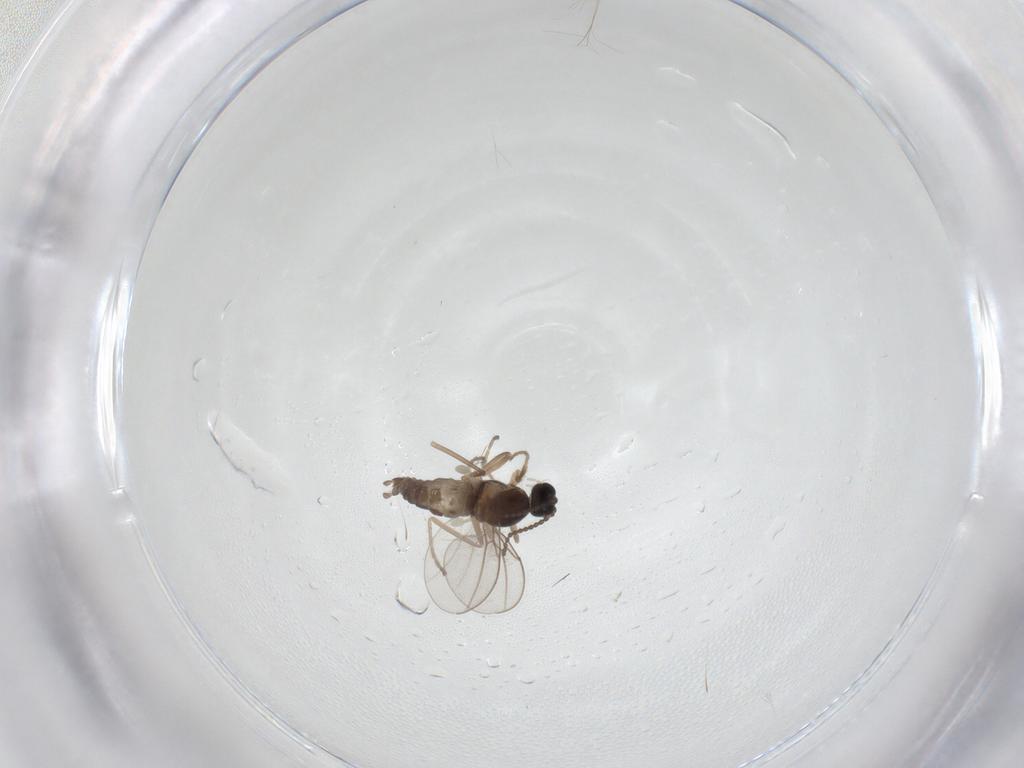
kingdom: Animalia
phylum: Arthropoda
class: Insecta
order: Diptera
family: Cecidomyiidae
